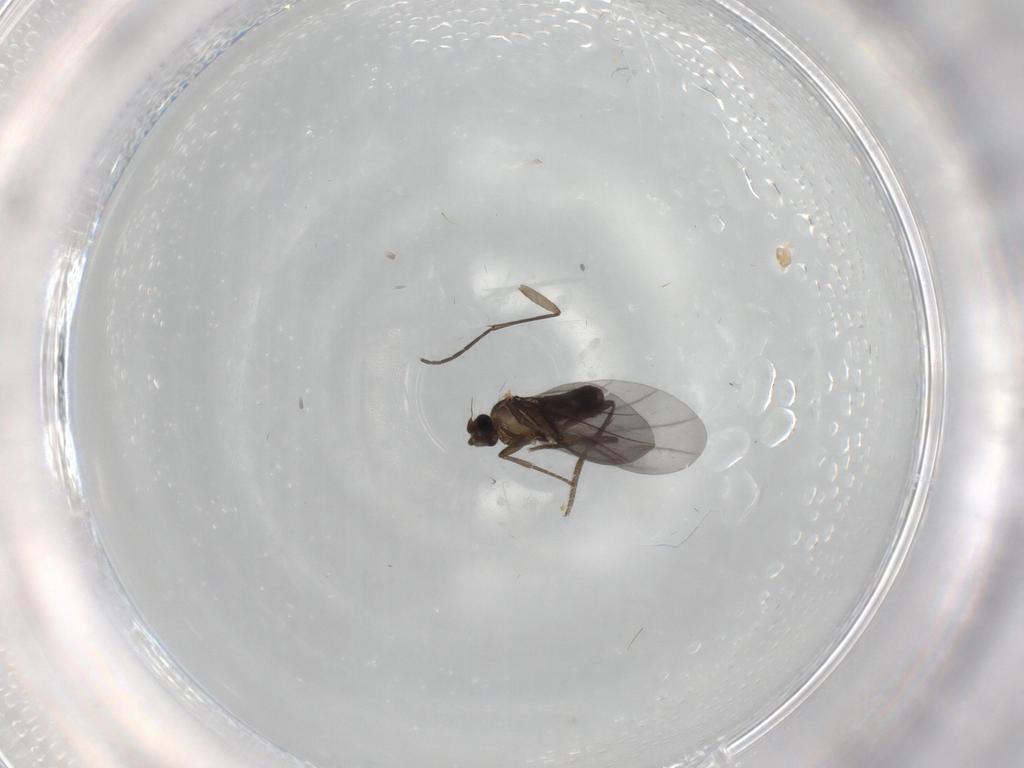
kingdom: Animalia
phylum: Arthropoda
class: Insecta
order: Diptera
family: Phoridae
